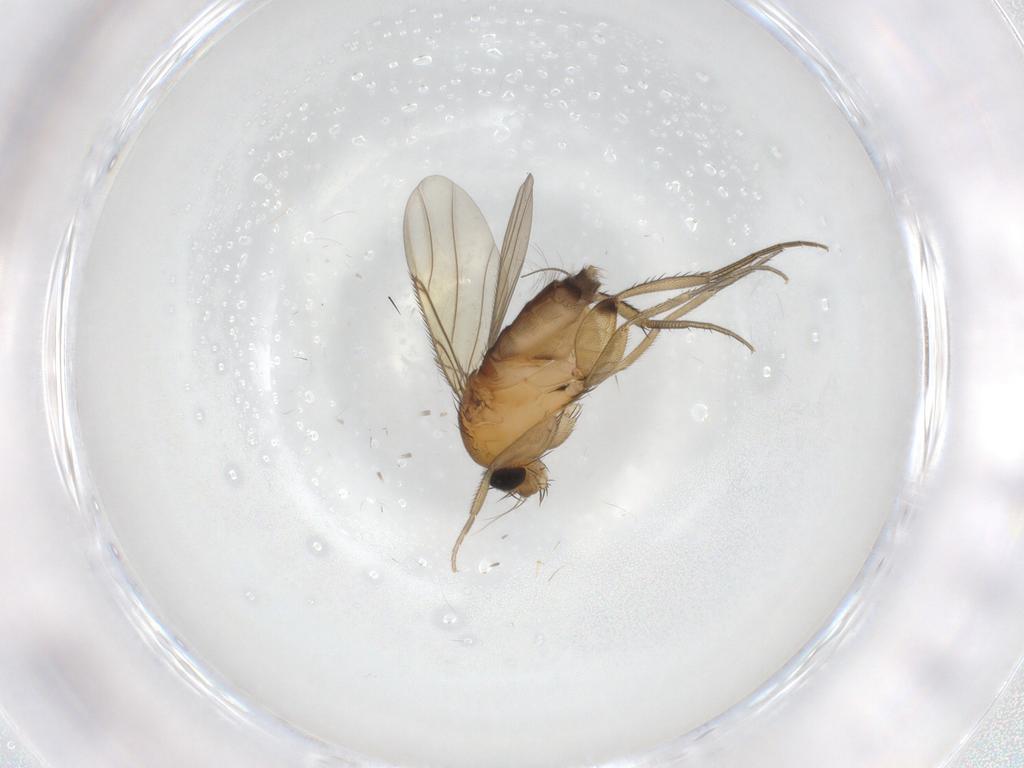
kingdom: Animalia
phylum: Arthropoda
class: Insecta
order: Diptera
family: Phoridae
